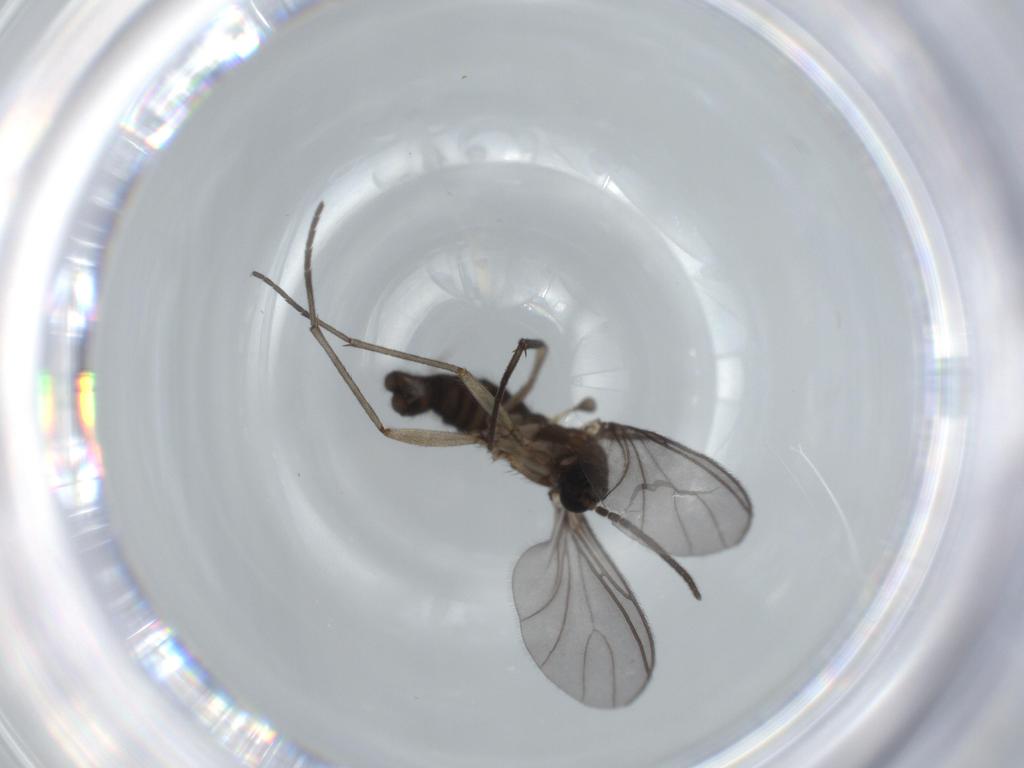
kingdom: Animalia
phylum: Arthropoda
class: Insecta
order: Diptera
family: Sciaridae
